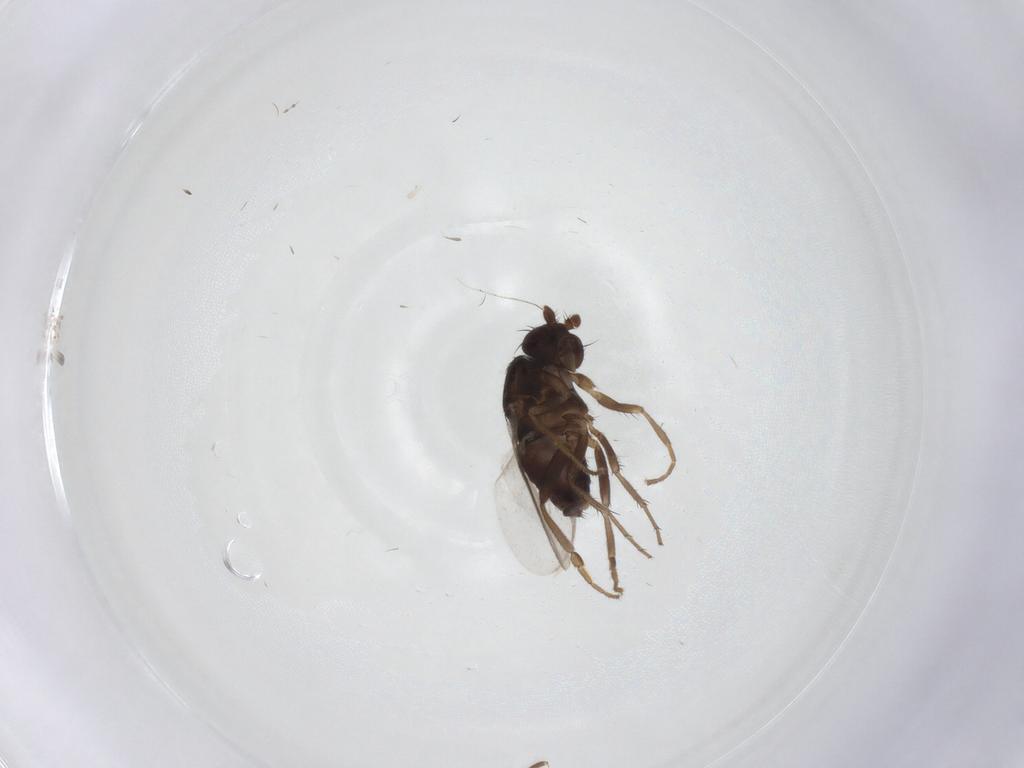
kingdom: Animalia
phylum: Arthropoda
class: Insecta
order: Diptera
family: Sphaeroceridae
